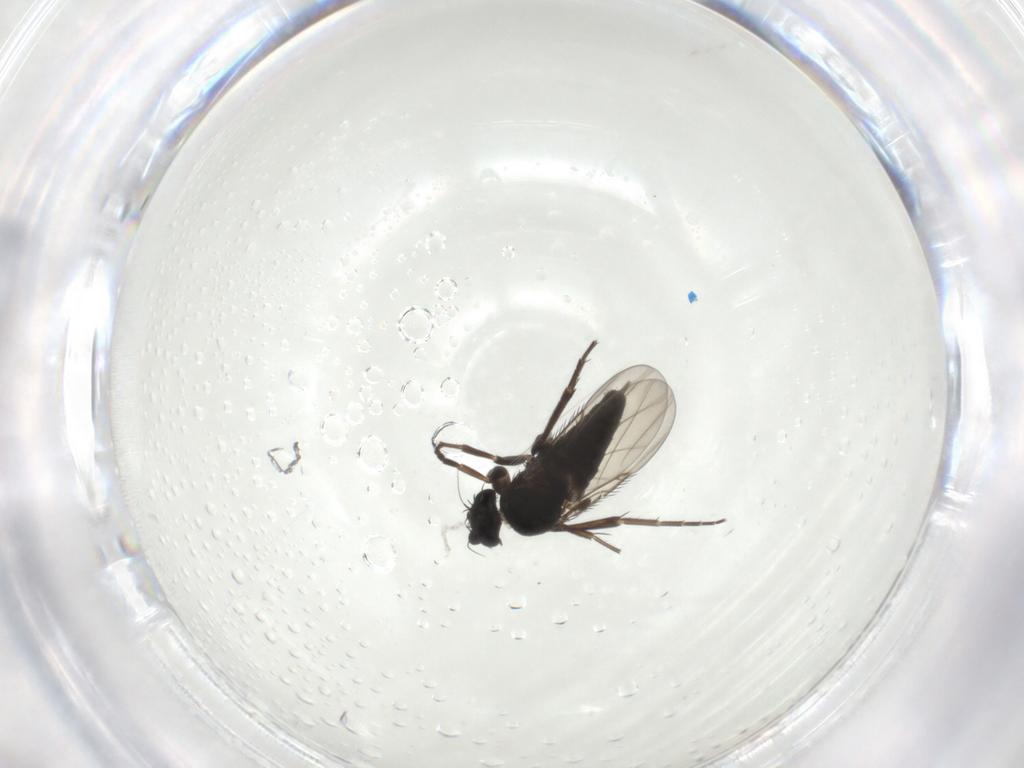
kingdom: Animalia
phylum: Arthropoda
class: Insecta
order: Diptera
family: Phoridae
